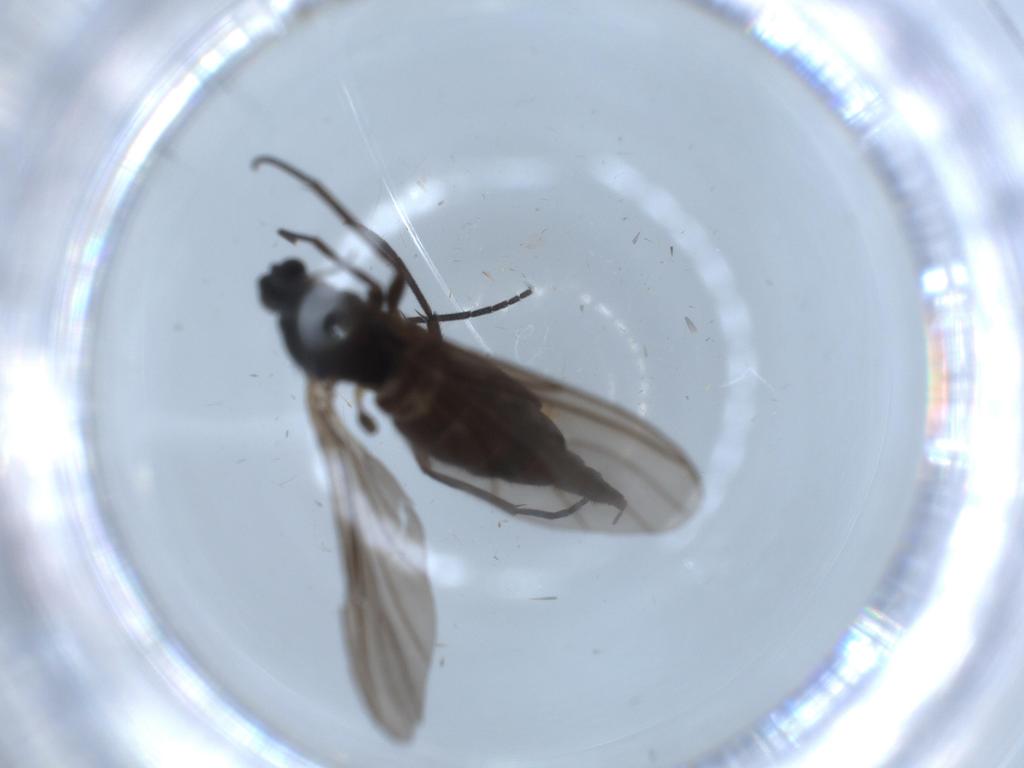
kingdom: Animalia
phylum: Arthropoda
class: Insecta
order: Diptera
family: Sciaridae
